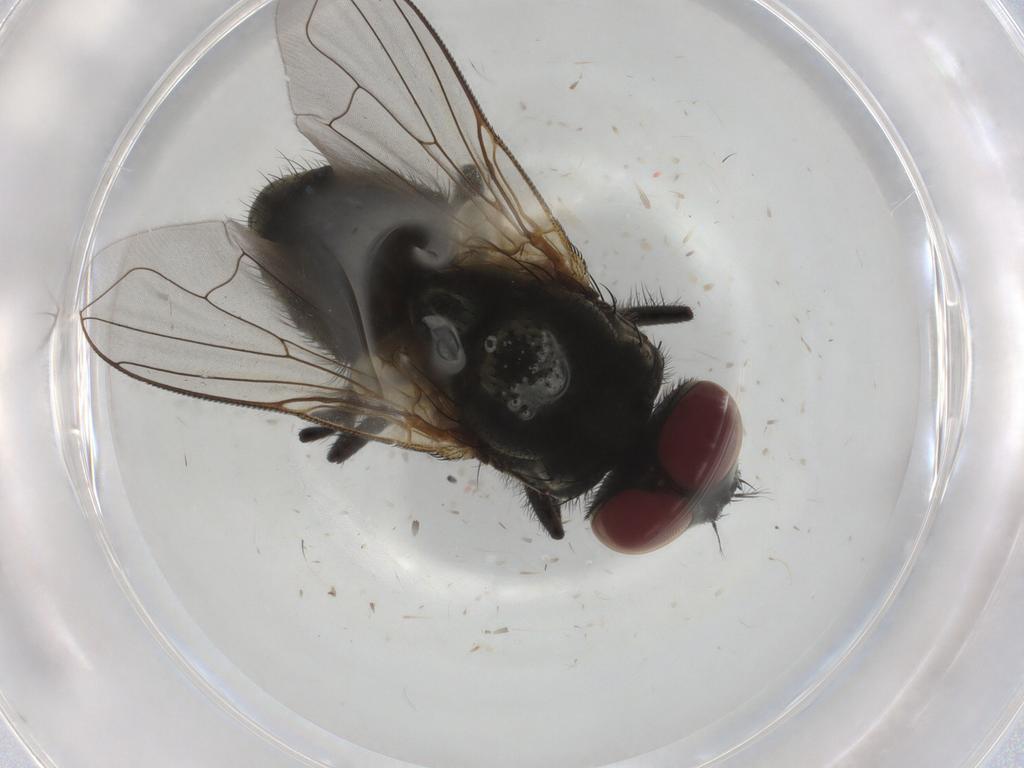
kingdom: Animalia
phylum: Arthropoda
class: Insecta
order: Diptera
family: Muscidae
